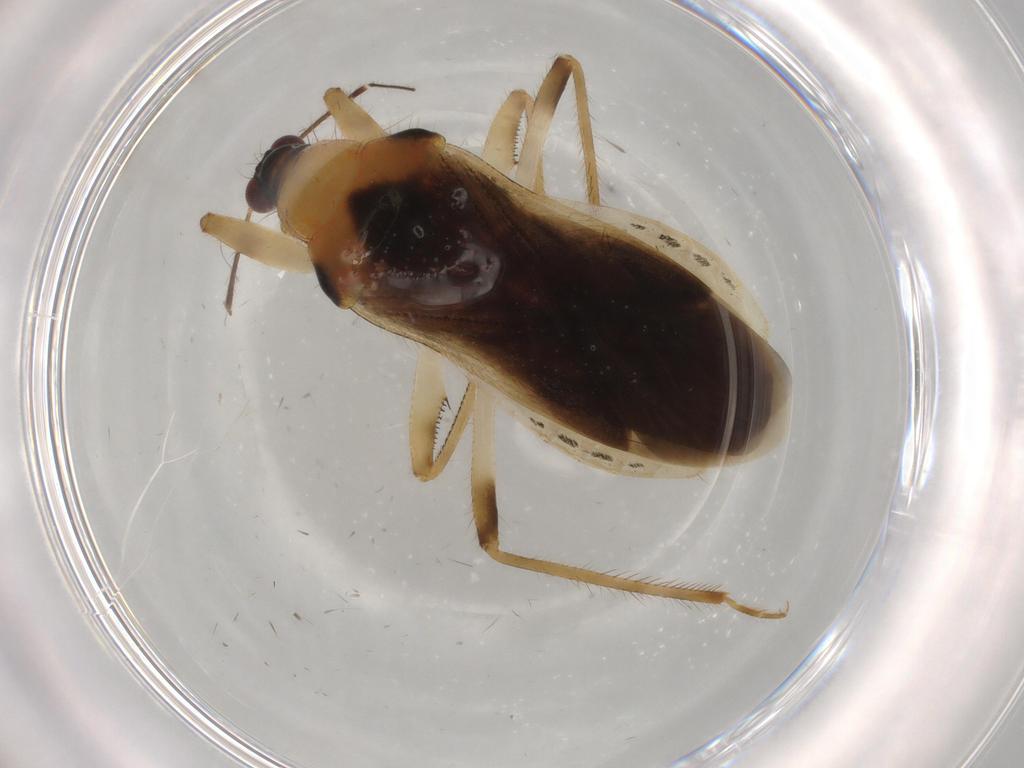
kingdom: Animalia
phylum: Arthropoda
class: Insecta
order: Hemiptera
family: Nabidae
